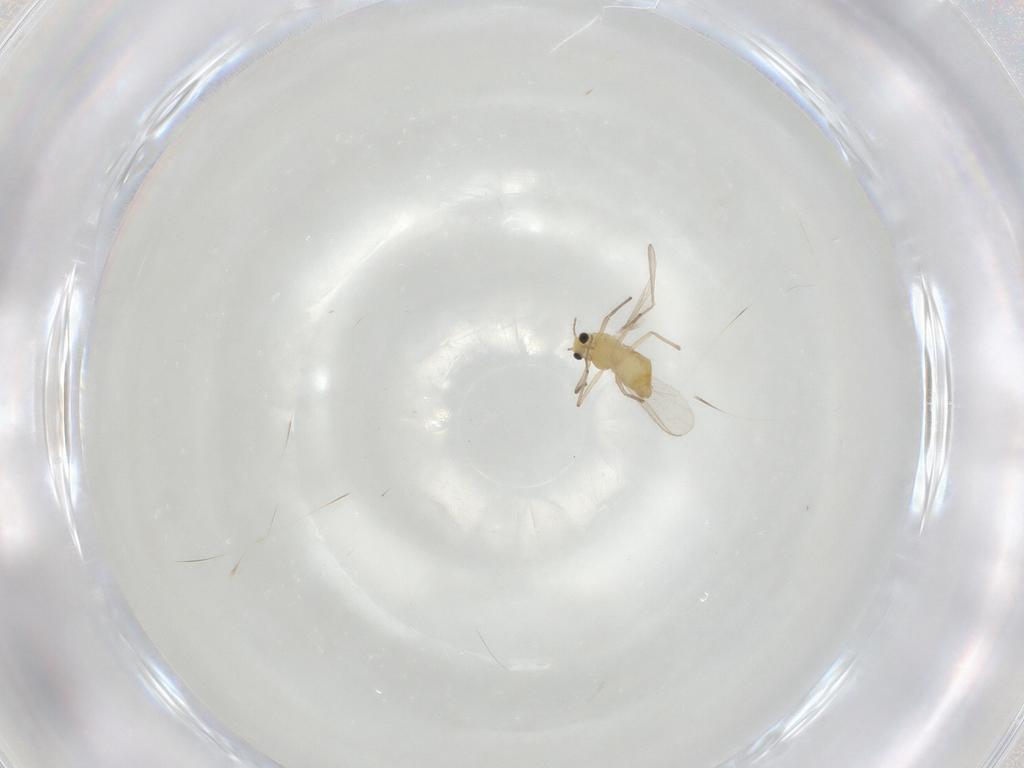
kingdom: Animalia
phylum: Arthropoda
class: Insecta
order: Diptera
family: Chironomidae
